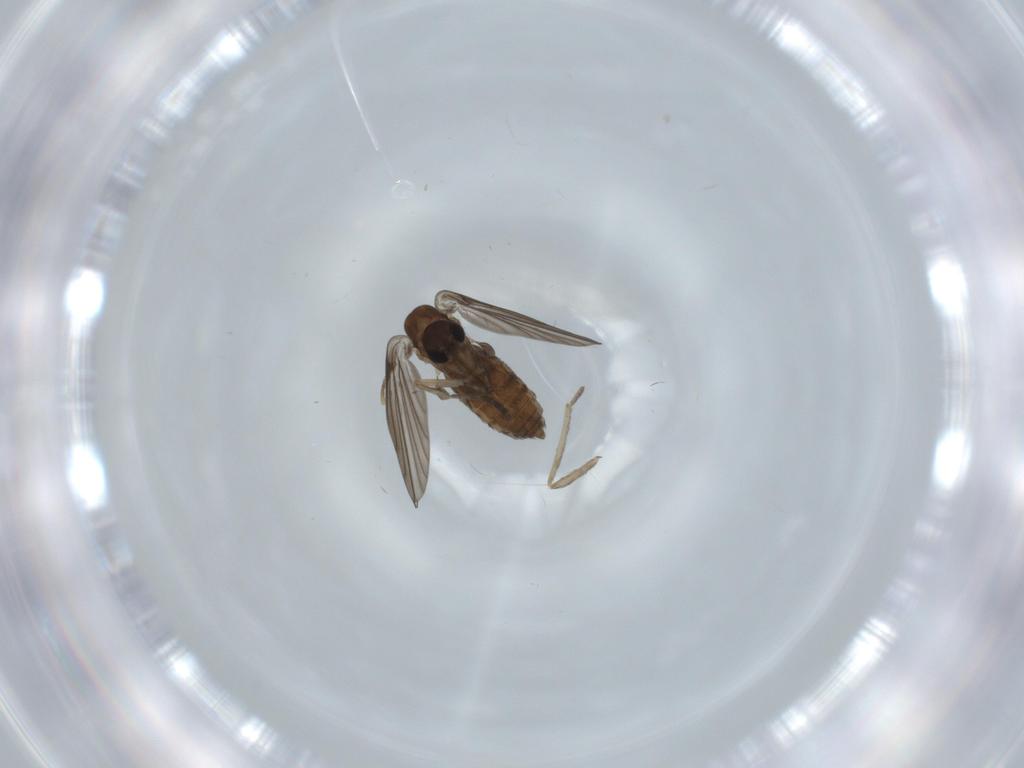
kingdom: Animalia
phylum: Arthropoda
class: Insecta
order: Diptera
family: Psychodidae
